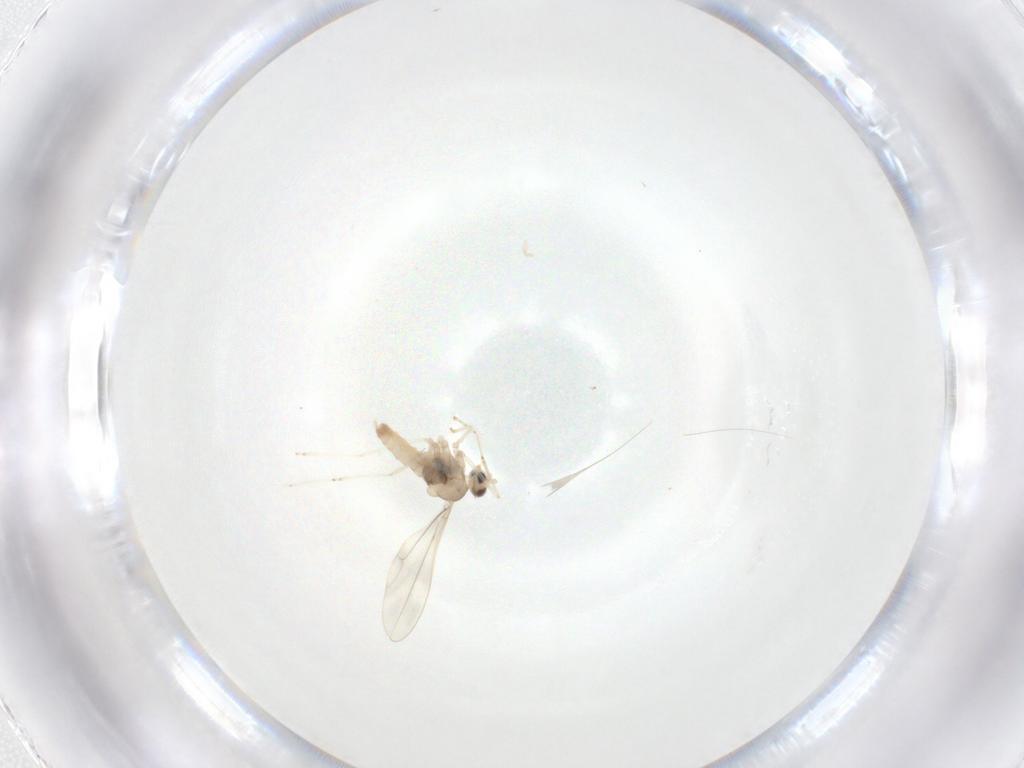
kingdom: Animalia
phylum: Arthropoda
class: Insecta
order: Diptera
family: Cecidomyiidae
